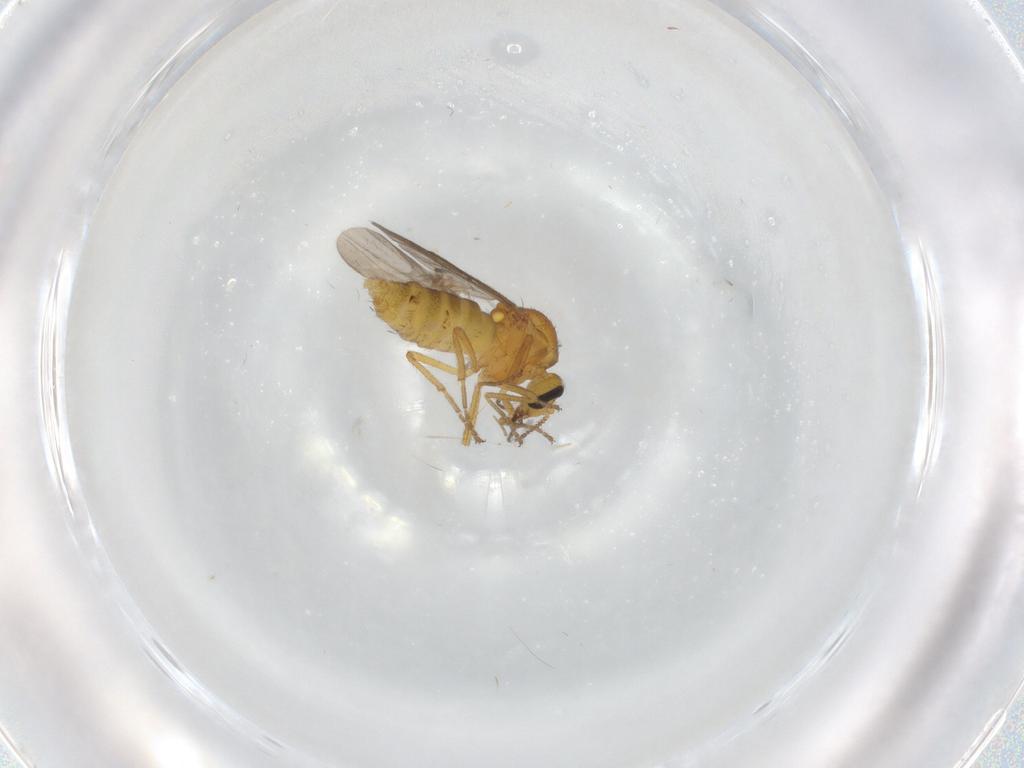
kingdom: Animalia
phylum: Arthropoda
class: Insecta
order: Diptera
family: Ceratopogonidae
